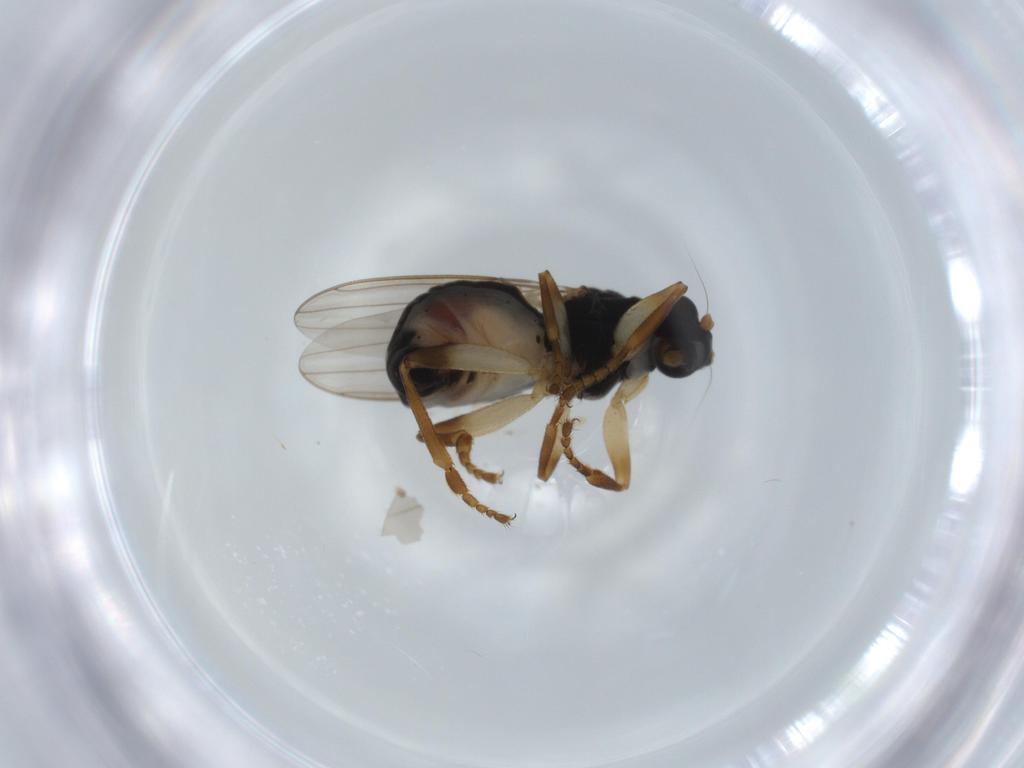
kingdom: Animalia
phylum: Arthropoda
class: Insecta
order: Diptera
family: Sphaeroceridae
